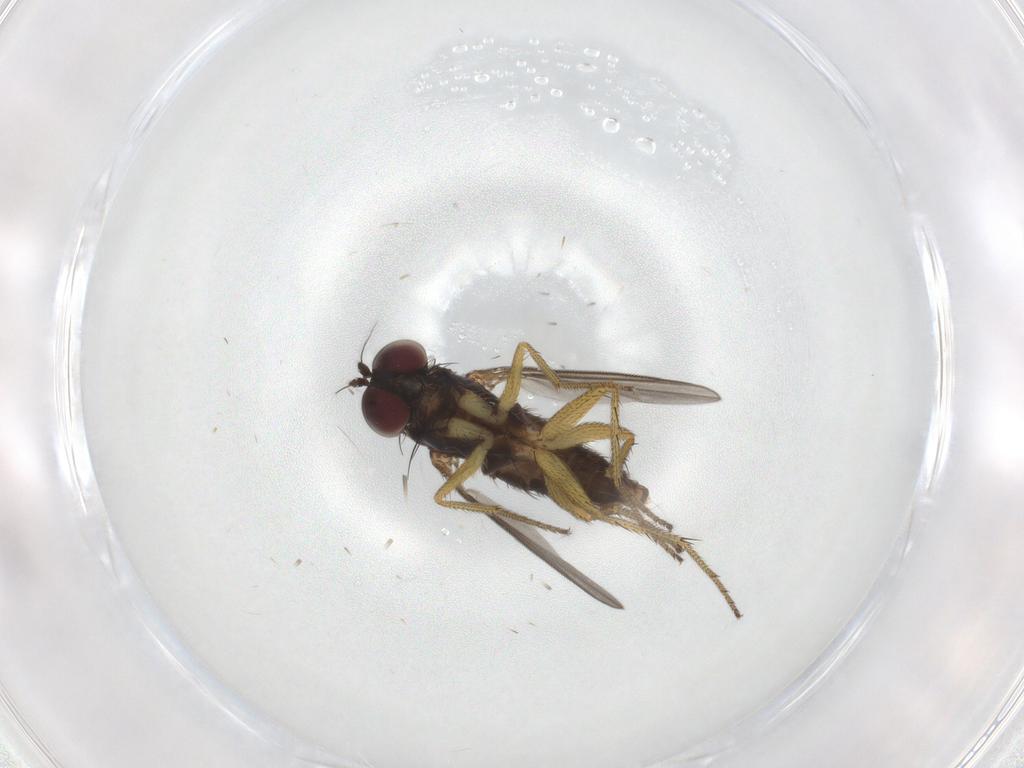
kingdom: Animalia
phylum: Arthropoda
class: Insecta
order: Diptera
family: Dolichopodidae
